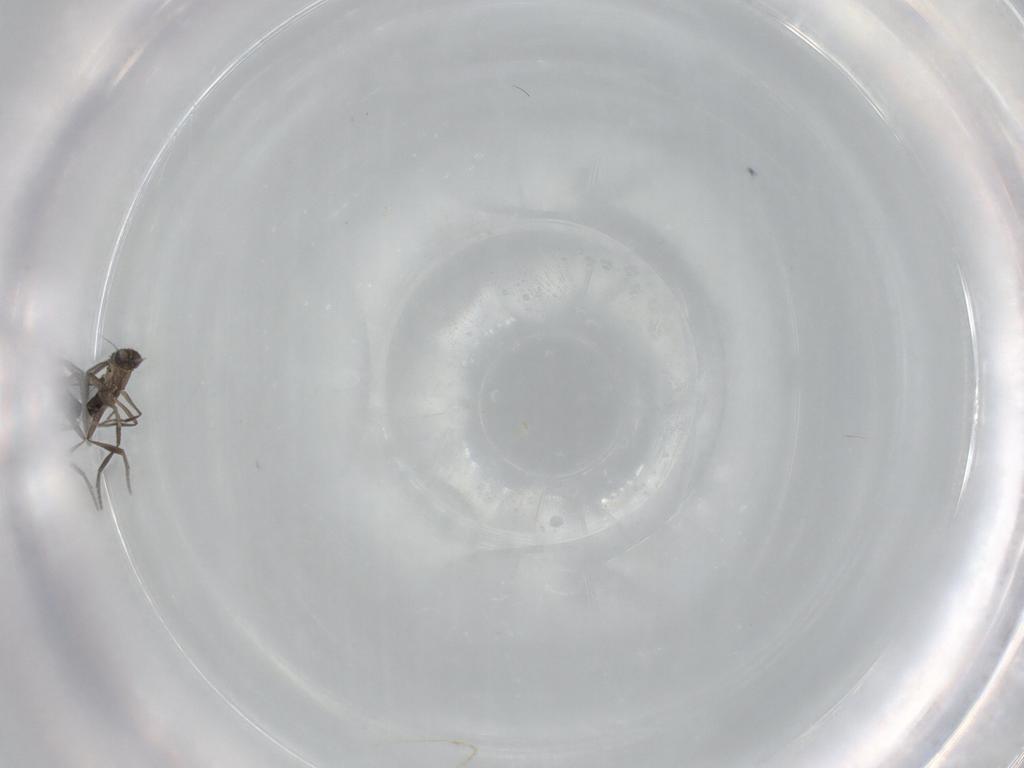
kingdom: Animalia
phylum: Arthropoda
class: Insecta
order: Diptera
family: Phoridae
